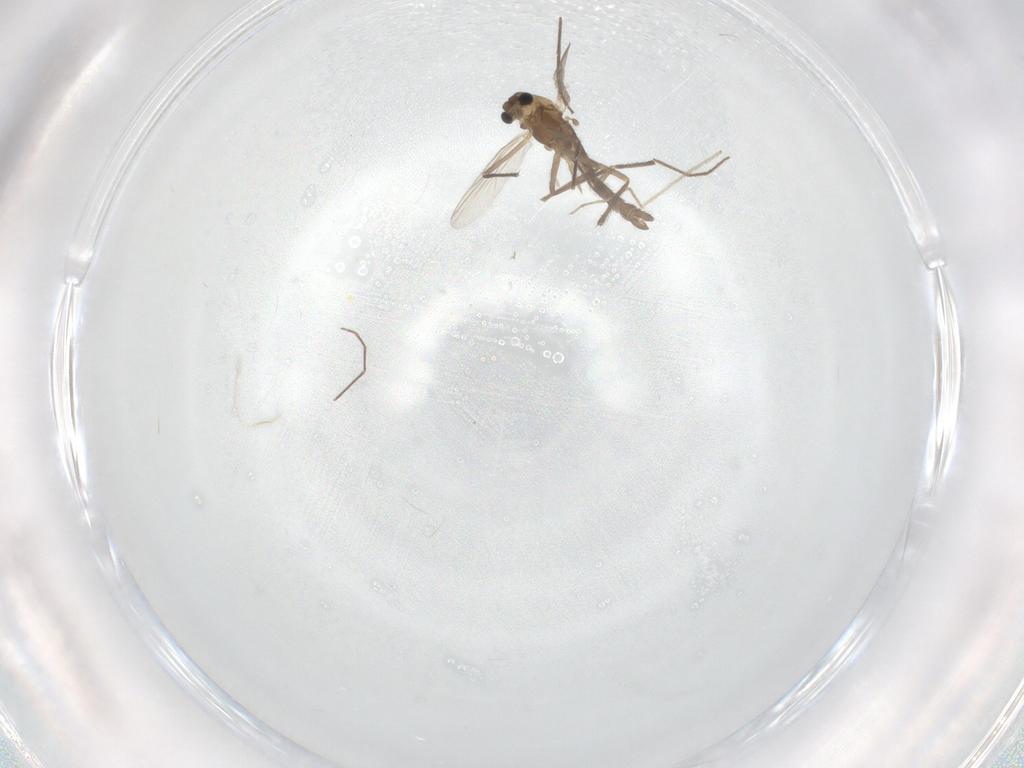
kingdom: Animalia
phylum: Arthropoda
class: Insecta
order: Diptera
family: Chironomidae
